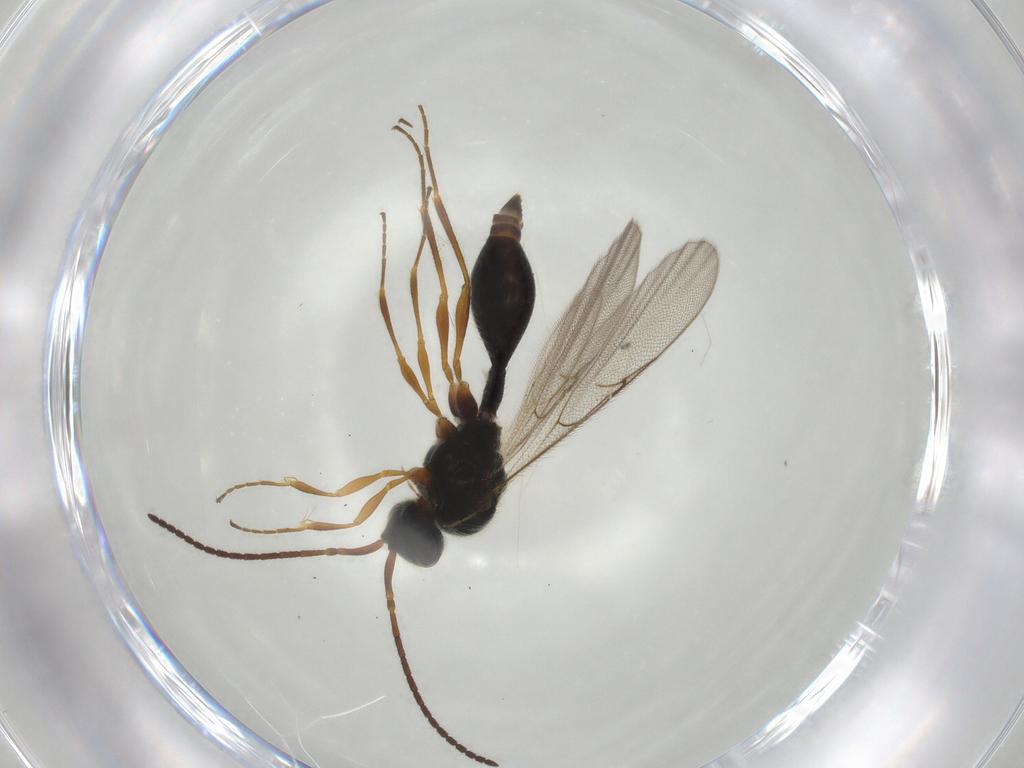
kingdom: Animalia
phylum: Arthropoda
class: Insecta
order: Hymenoptera
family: Diapriidae
